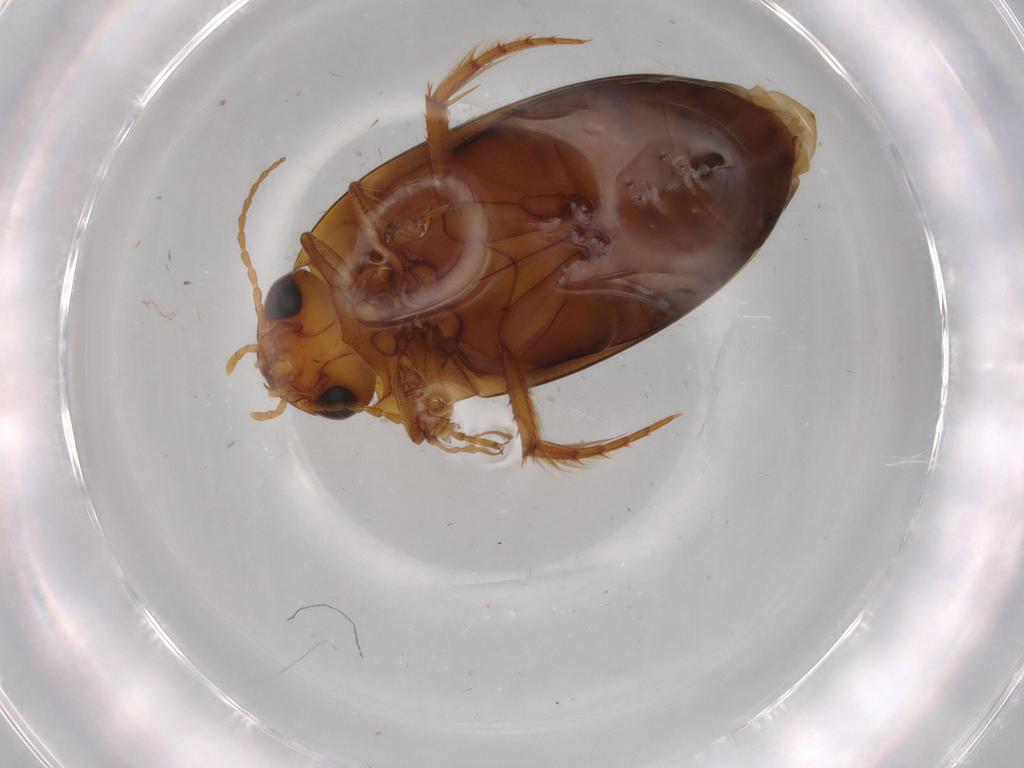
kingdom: Animalia
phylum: Arthropoda
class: Insecta
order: Coleoptera
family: Dytiscidae
